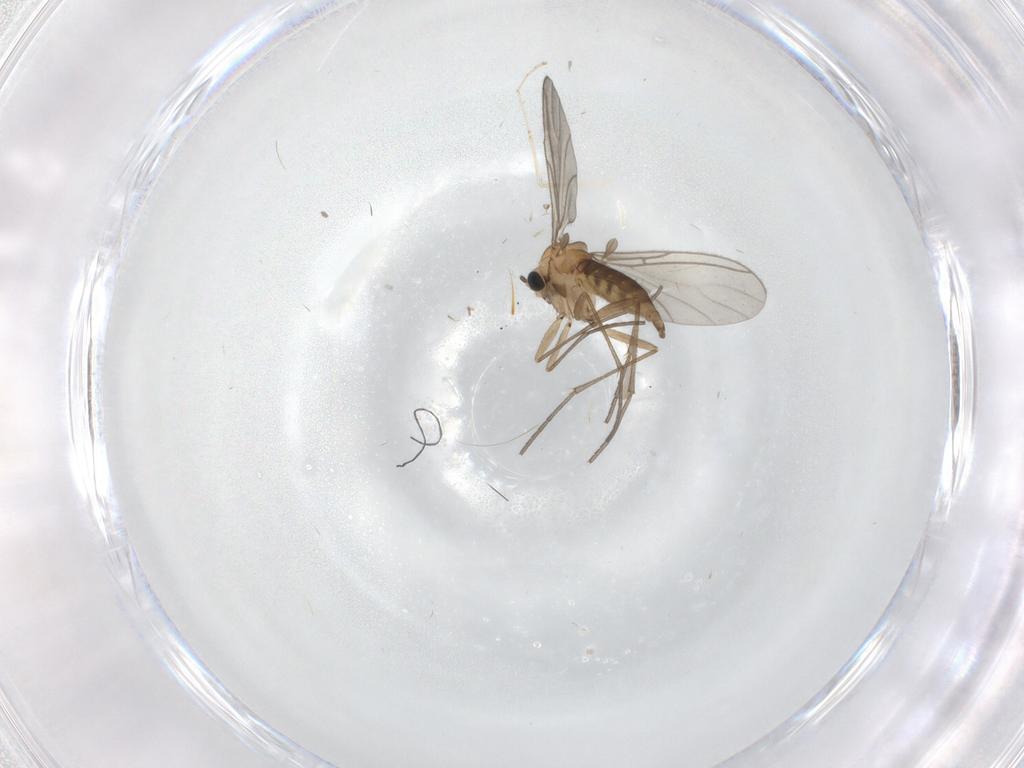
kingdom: Animalia
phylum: Arthropoda
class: Insecta
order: Diptera
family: Sciaridae
